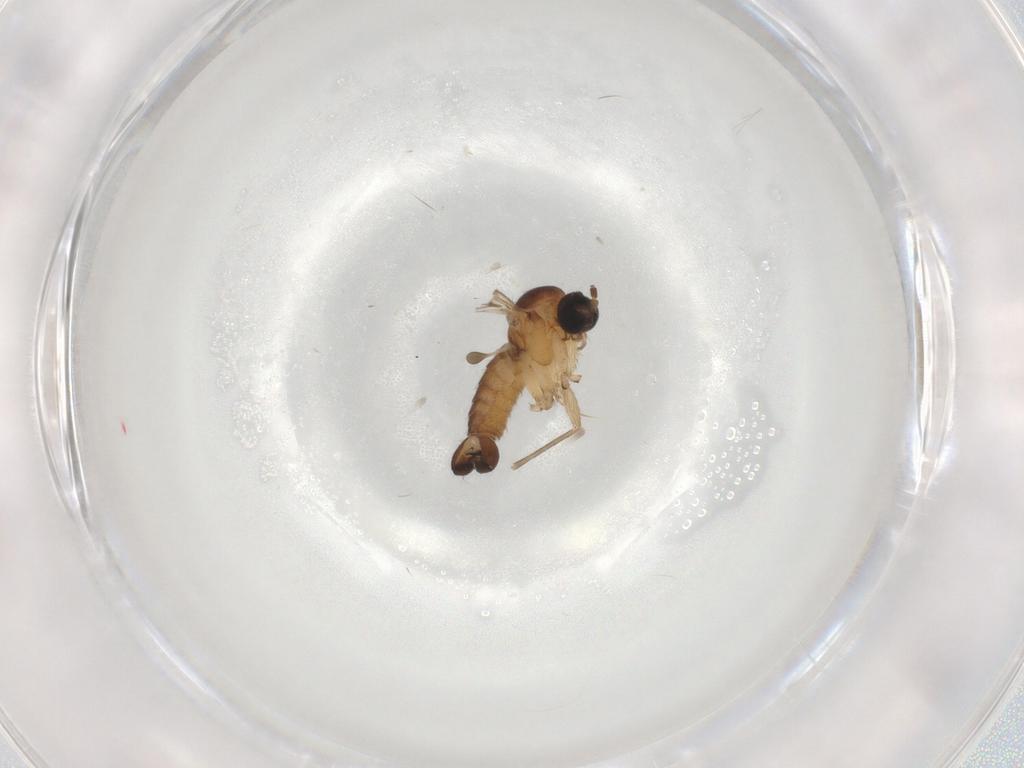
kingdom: Animalia
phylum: Arthropoda
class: Insecta
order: Diptera
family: Sciaridae
